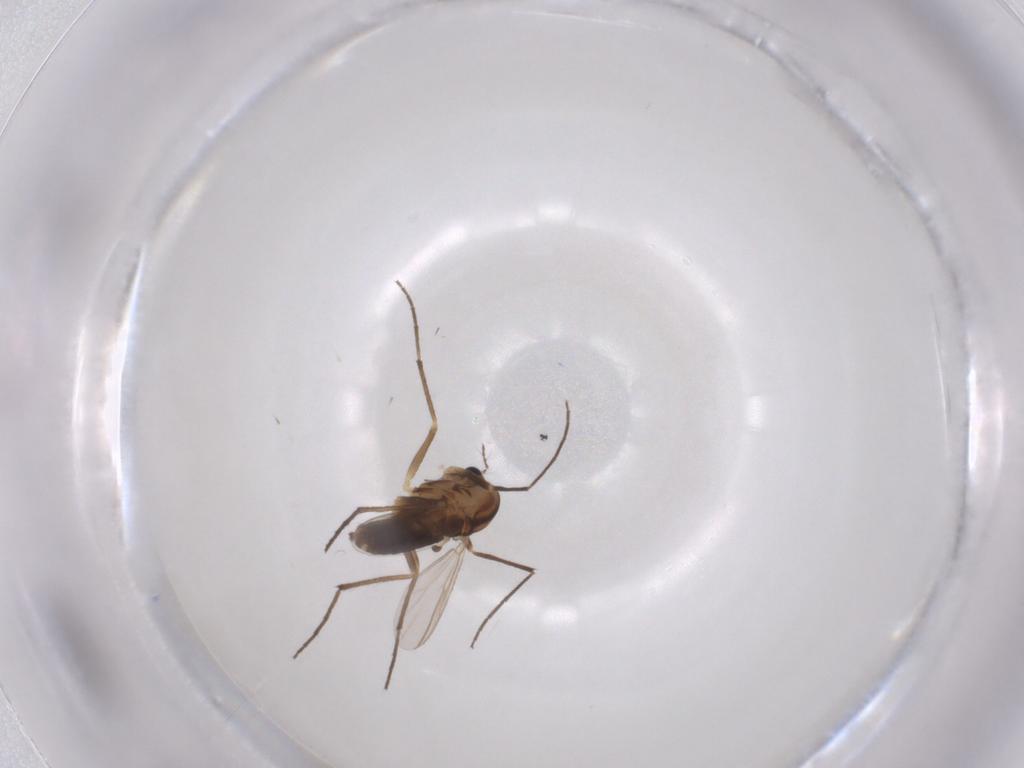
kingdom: Animalia
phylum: Arthropoda
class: Insecta
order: Diptera
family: Chironomidae
